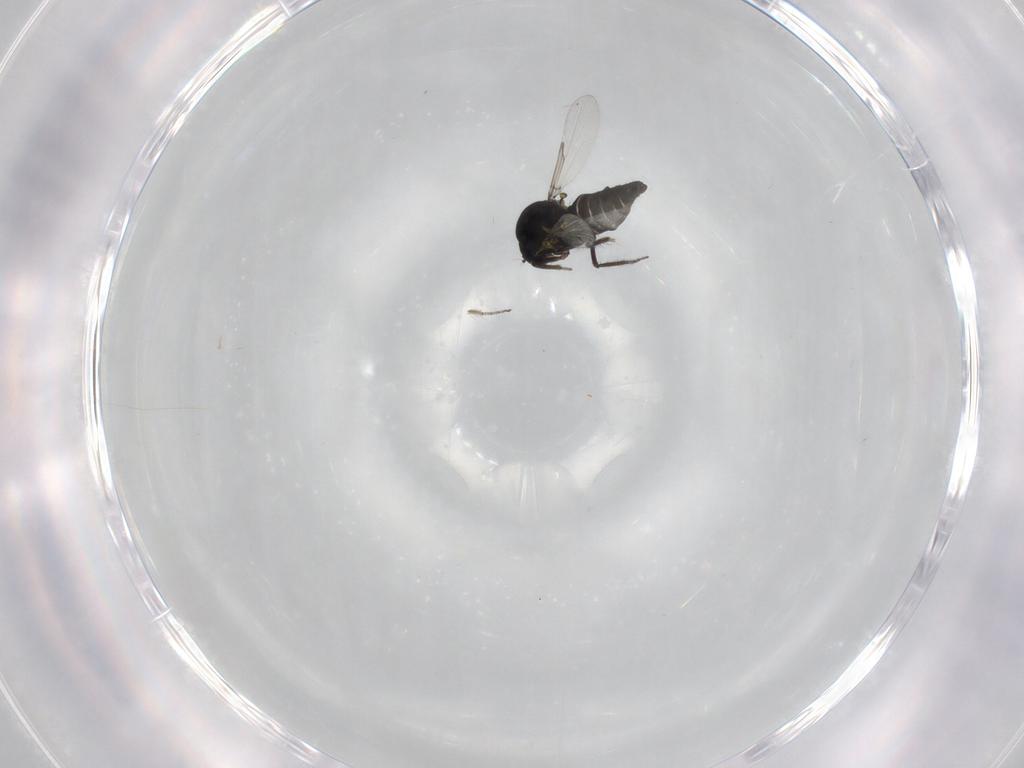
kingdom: Animalia
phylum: Arthropoda
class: Insecta
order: Diptera
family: Ceratopogonidae
